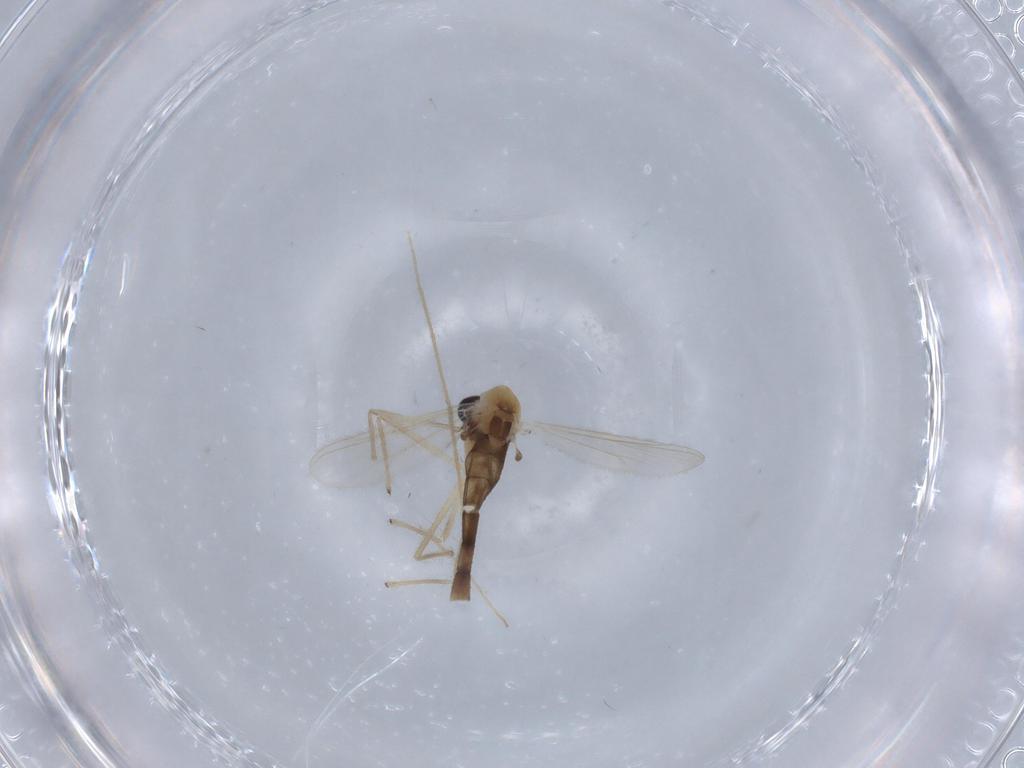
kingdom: Animalia
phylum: Arthropoda
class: Insecta
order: Diptera
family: Chironomidae
